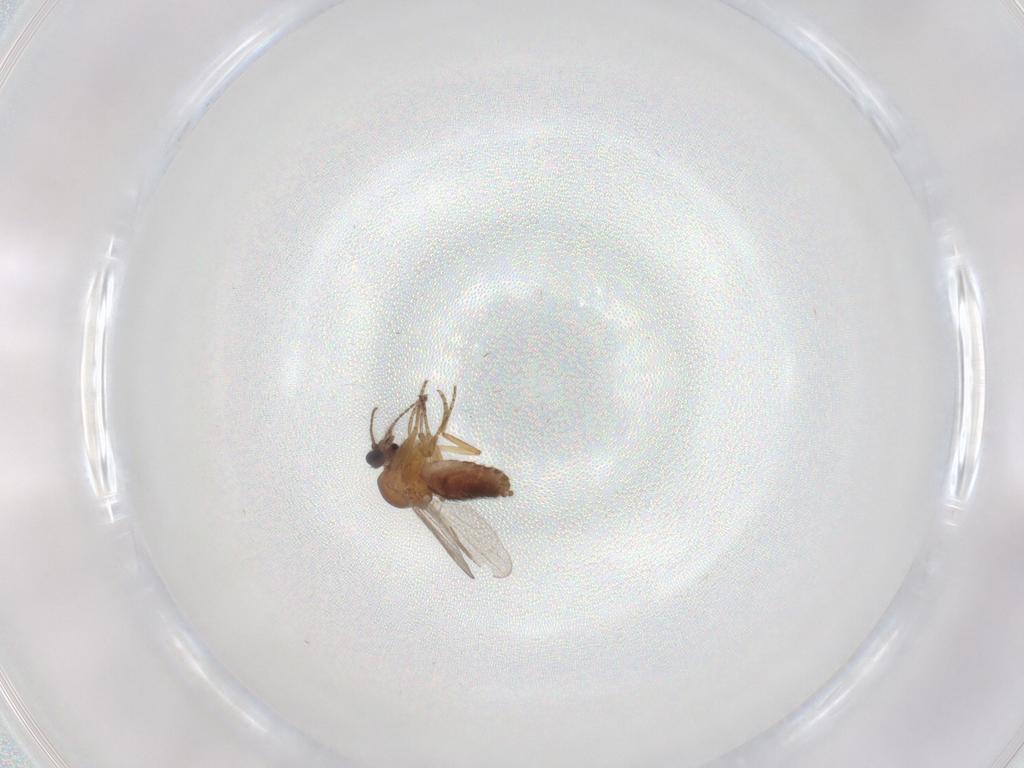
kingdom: Animalia
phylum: Arthropoda
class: Insecta
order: Diptera
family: Ceratopogonidae
